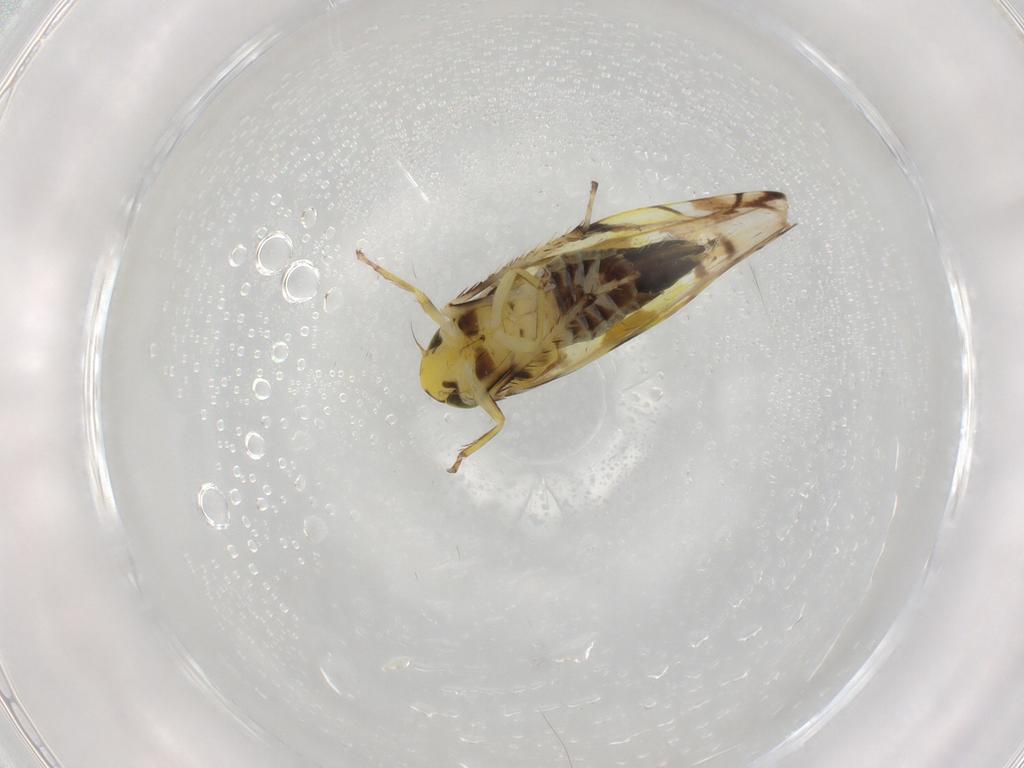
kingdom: Animalia
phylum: Arthropoda
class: Insecta
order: Hemiptera
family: Cicadellidae
